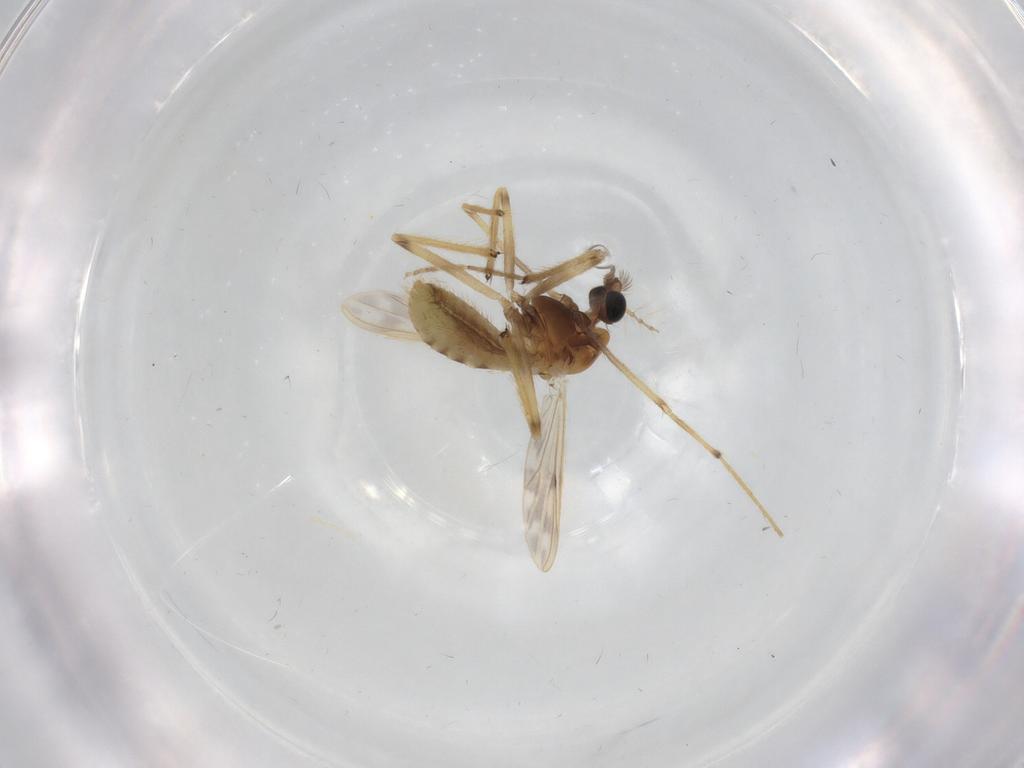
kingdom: Animalia
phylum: Arthropoda
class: Insecta
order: Diptera
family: Chironomidae
